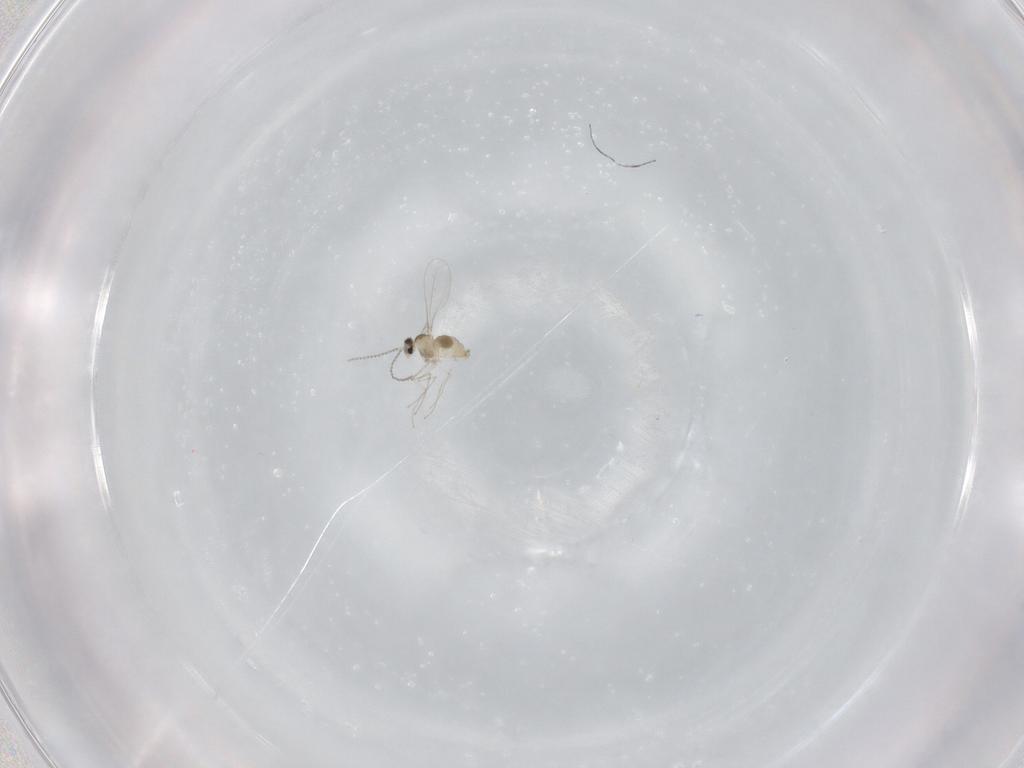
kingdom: Animalia
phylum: Arthropoda
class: Insecta
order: Diptera
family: Cecidomyiidae
